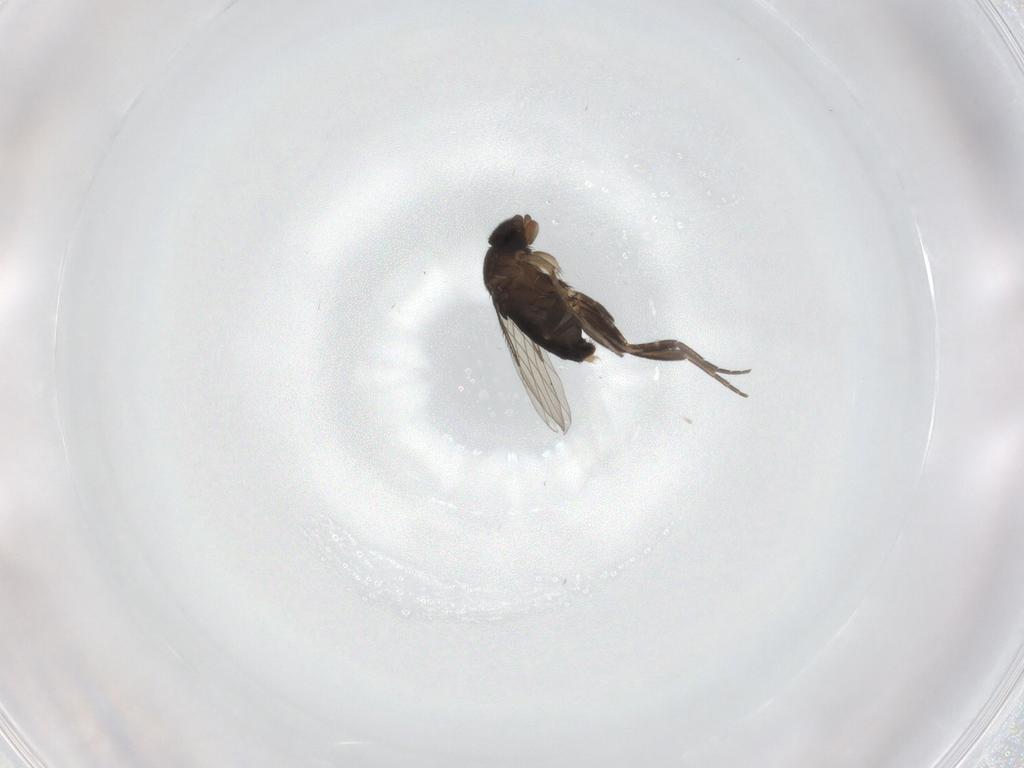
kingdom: Animalia
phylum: Arthropoda
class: Insecta
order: Diptera
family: Phoridae
